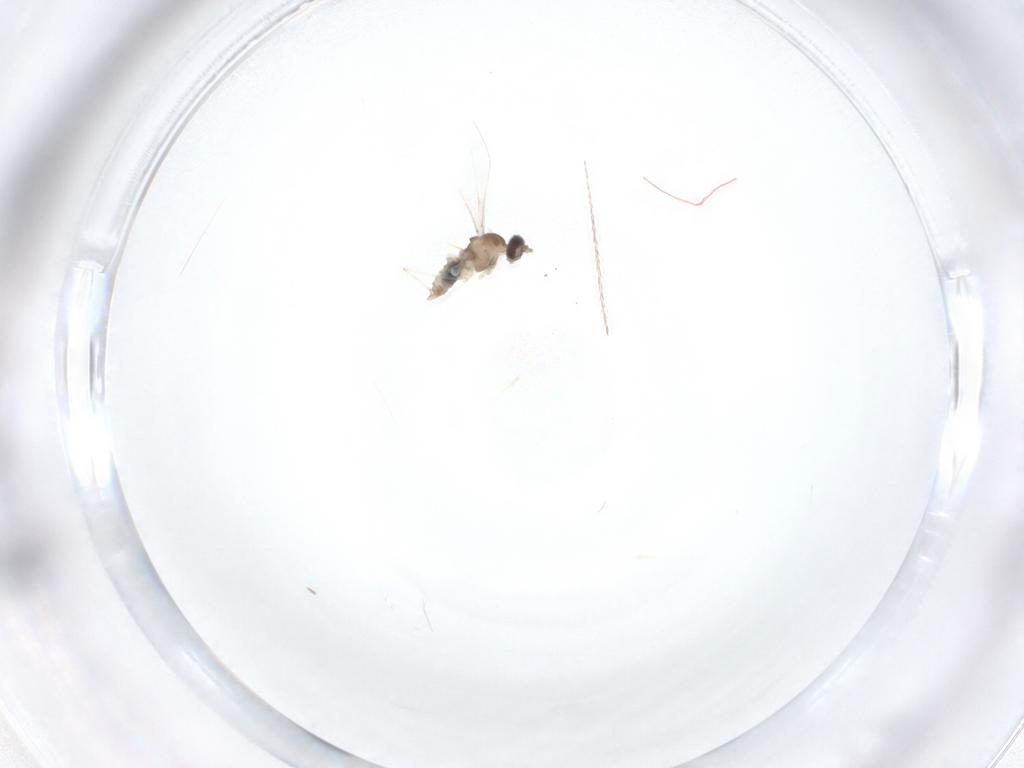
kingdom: Animalia
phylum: Arthropoda
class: Insecta
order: Diptera
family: Cecidomyiidae
